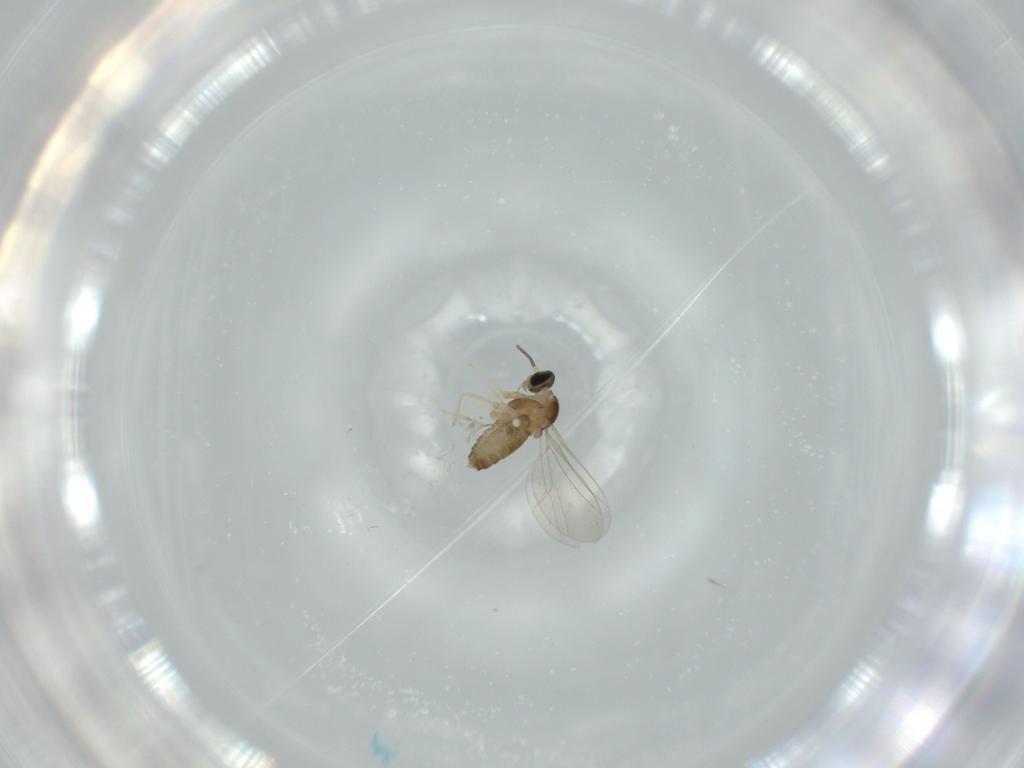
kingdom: Animalia
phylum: Arthropoda
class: Insecta
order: Diptera
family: Cecidomyiidae
